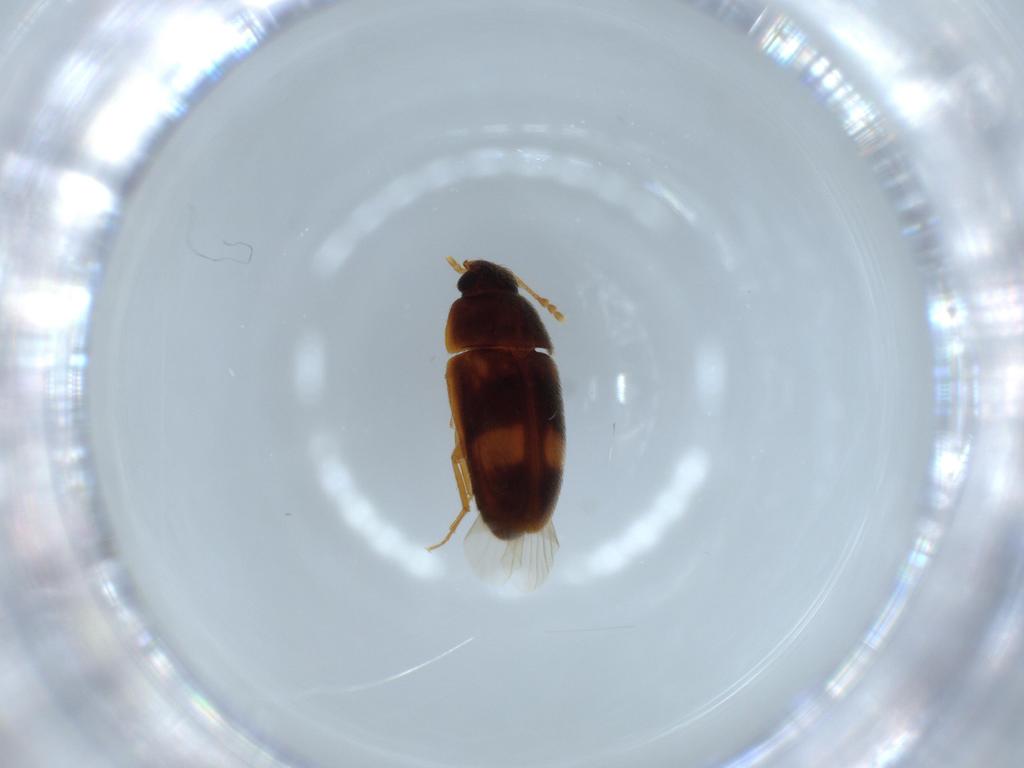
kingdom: Animalia
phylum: Arthropoda
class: Insecta
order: Coleoptera
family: Mycetophagidae
